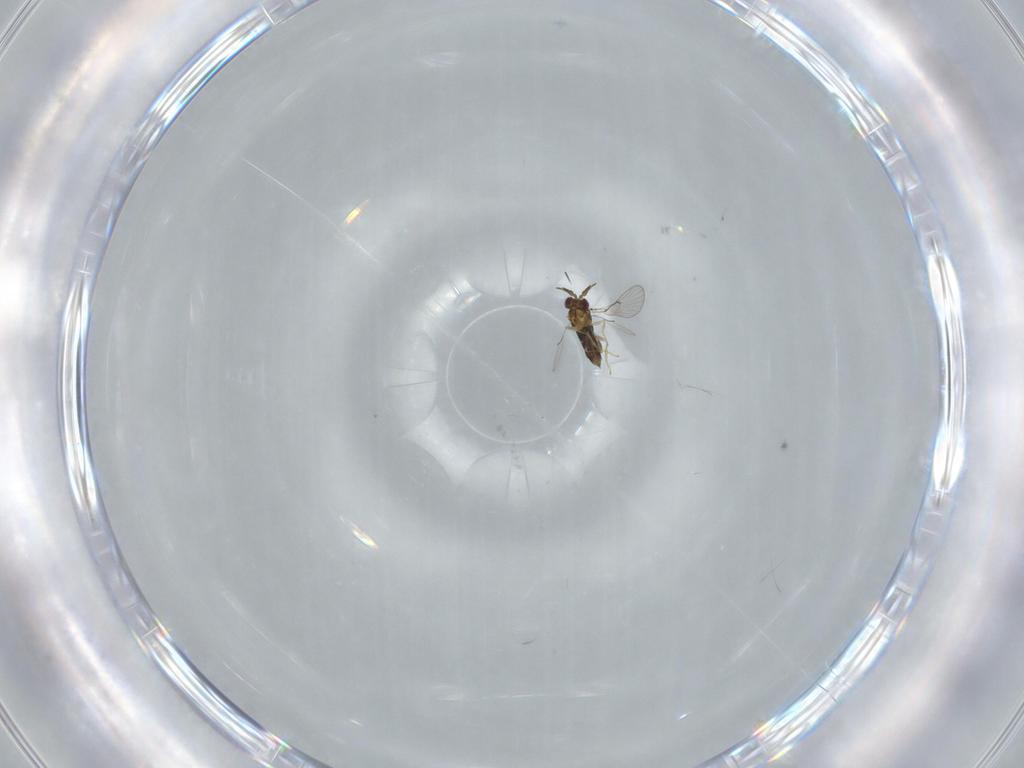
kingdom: Animalia
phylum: Arthropoda
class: Insecta
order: Hymenoptera
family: Trichogrammatidae
